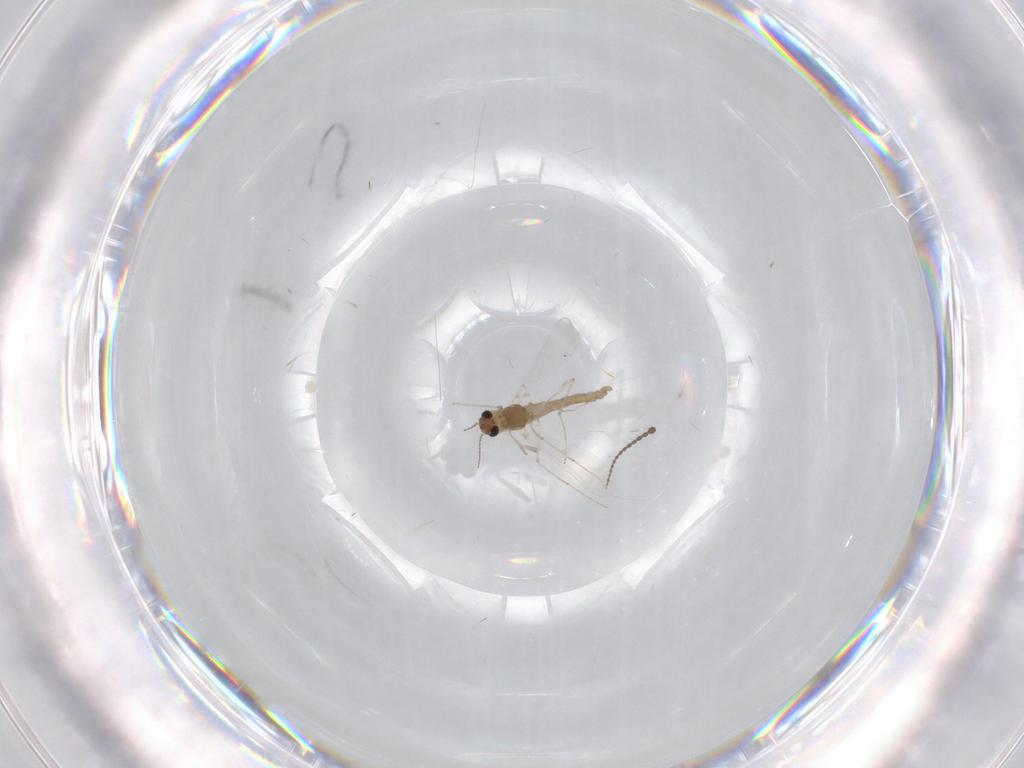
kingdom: Animalia
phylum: Arthropoda
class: Insecta
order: Diptera
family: Chironomidae
